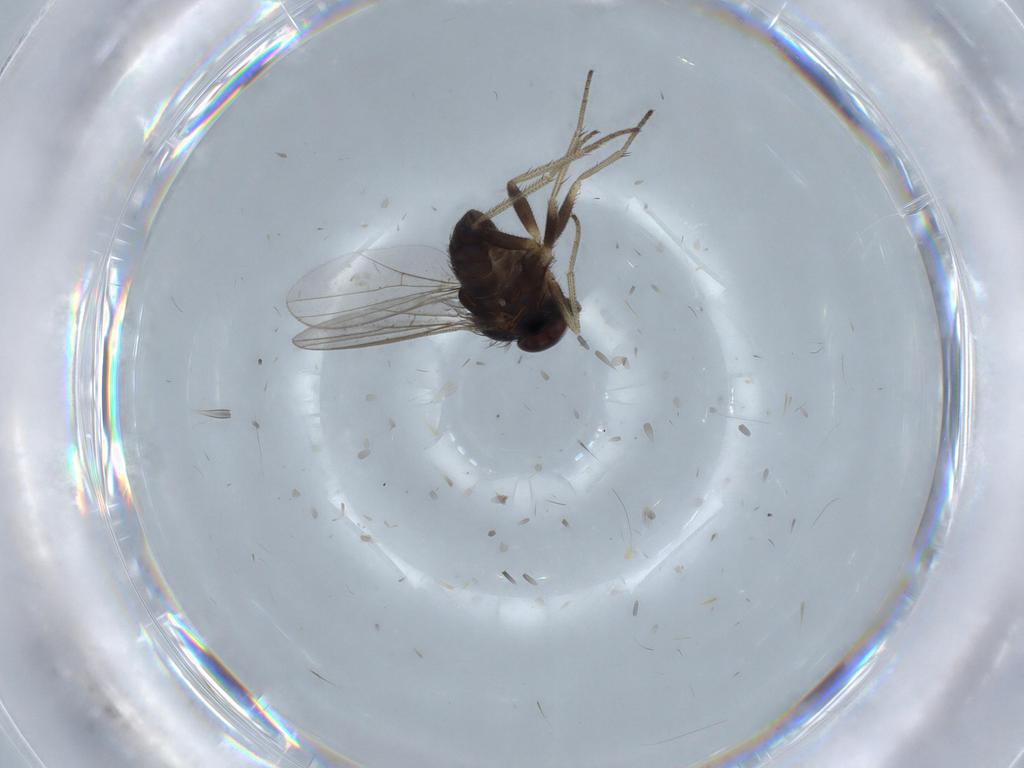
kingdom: Animalia
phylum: Arthropoda
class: Insecta
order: Diptera
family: Dolichopodidae
